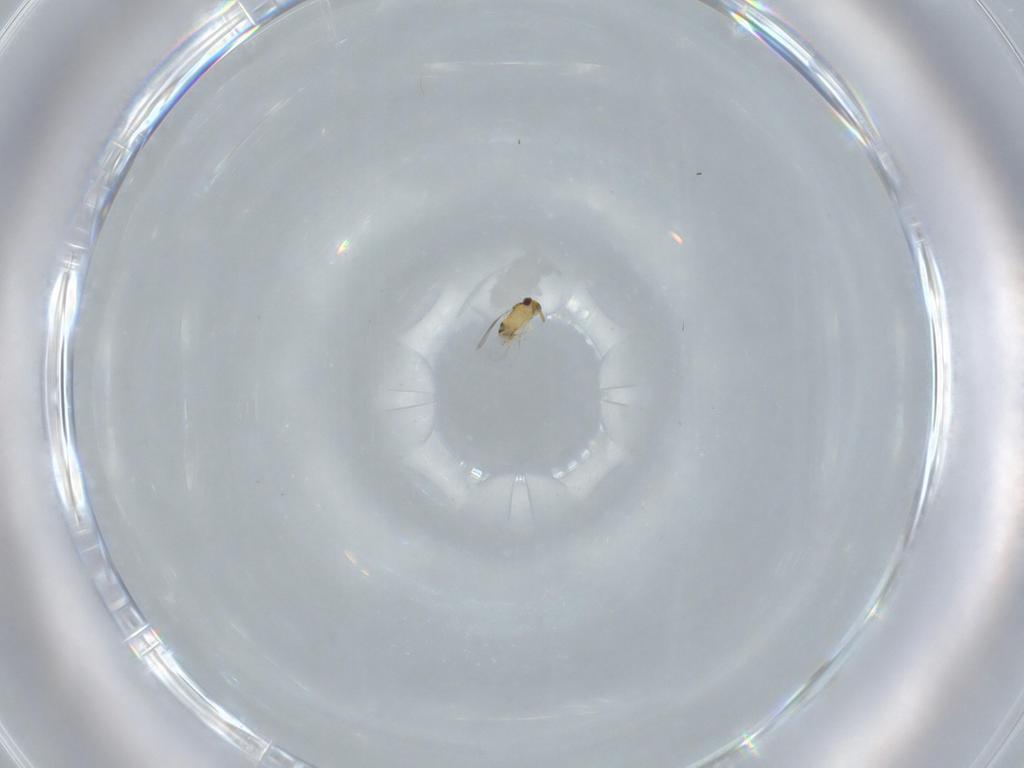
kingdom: Animalia
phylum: Arthropoda
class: Insecta
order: Hymenoptera
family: Aphelinidae
